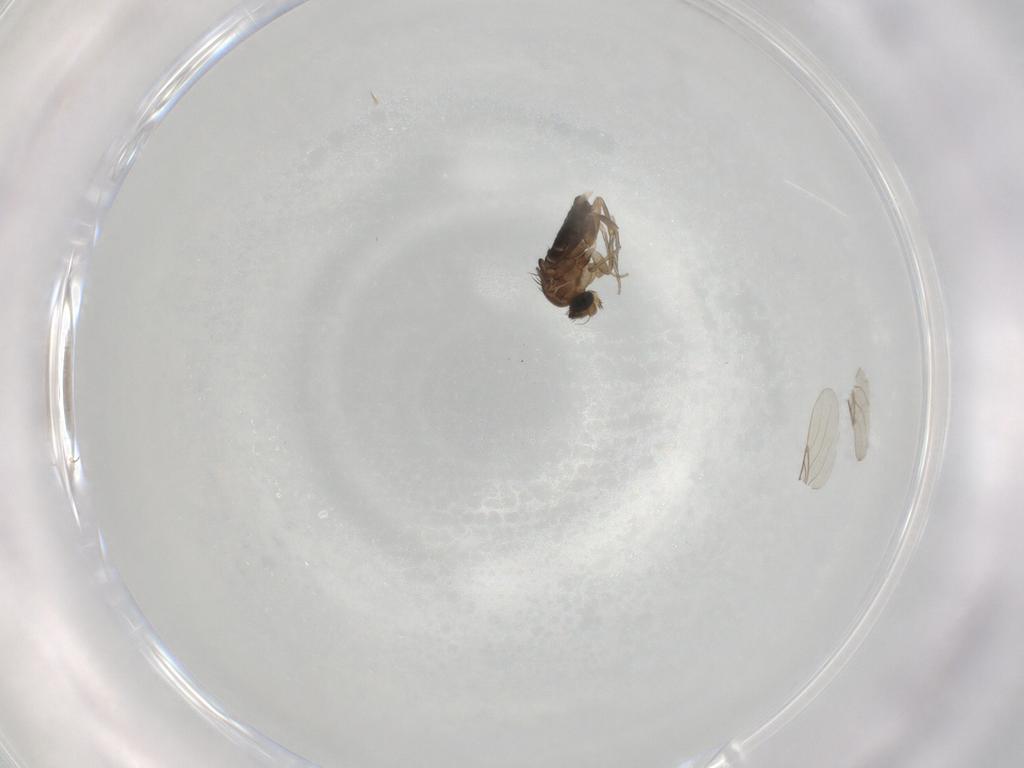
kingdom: Animalia
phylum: Arthropoda
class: Insecta
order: Diptera
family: Phoridae
